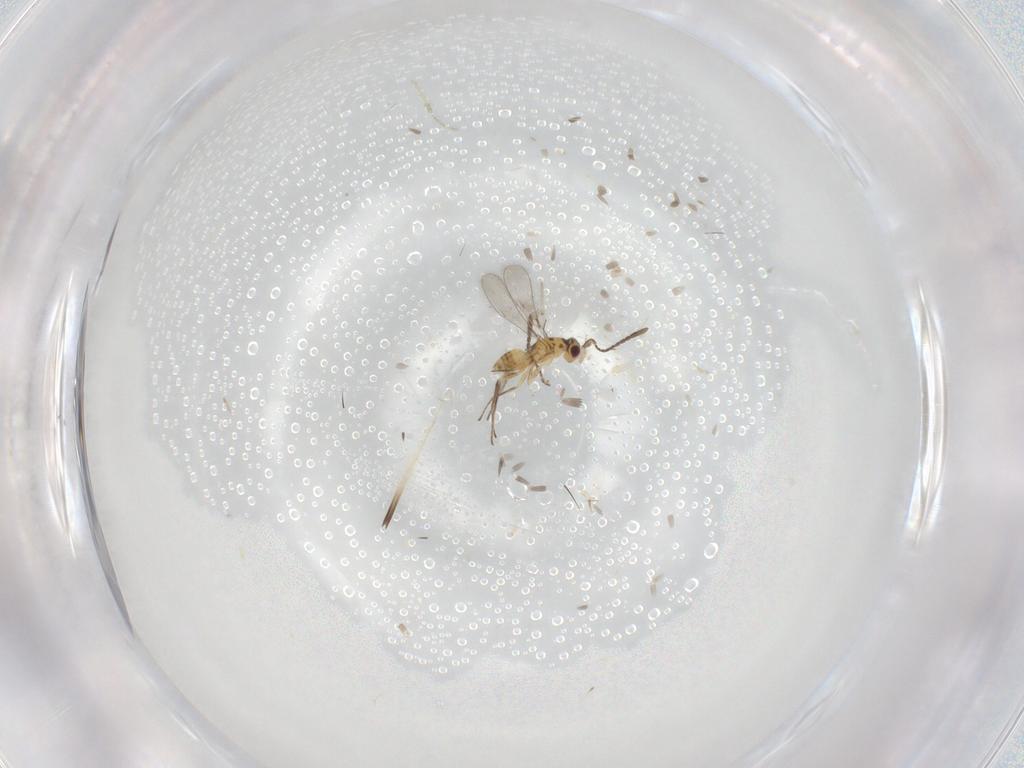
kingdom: Animalia
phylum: Arthropoda
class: Insecta
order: Hymenoptera
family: Mymaridae
